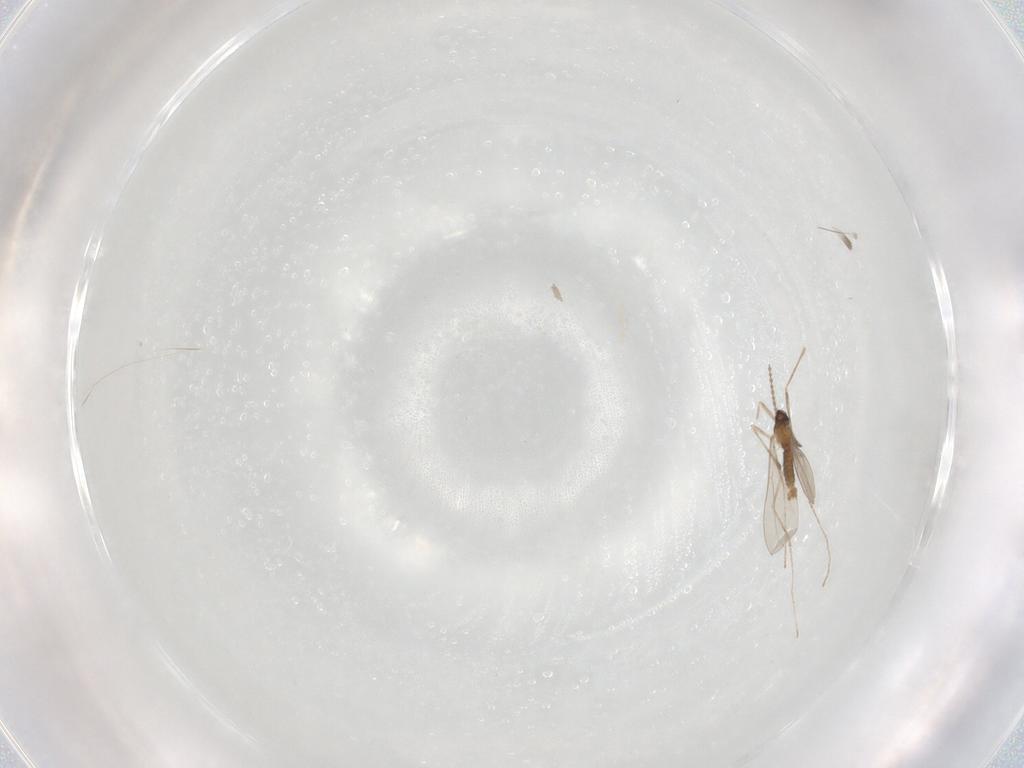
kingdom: Animalia
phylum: Arthropoda
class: Insecta
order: Diptera
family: Cecidomyiidae
